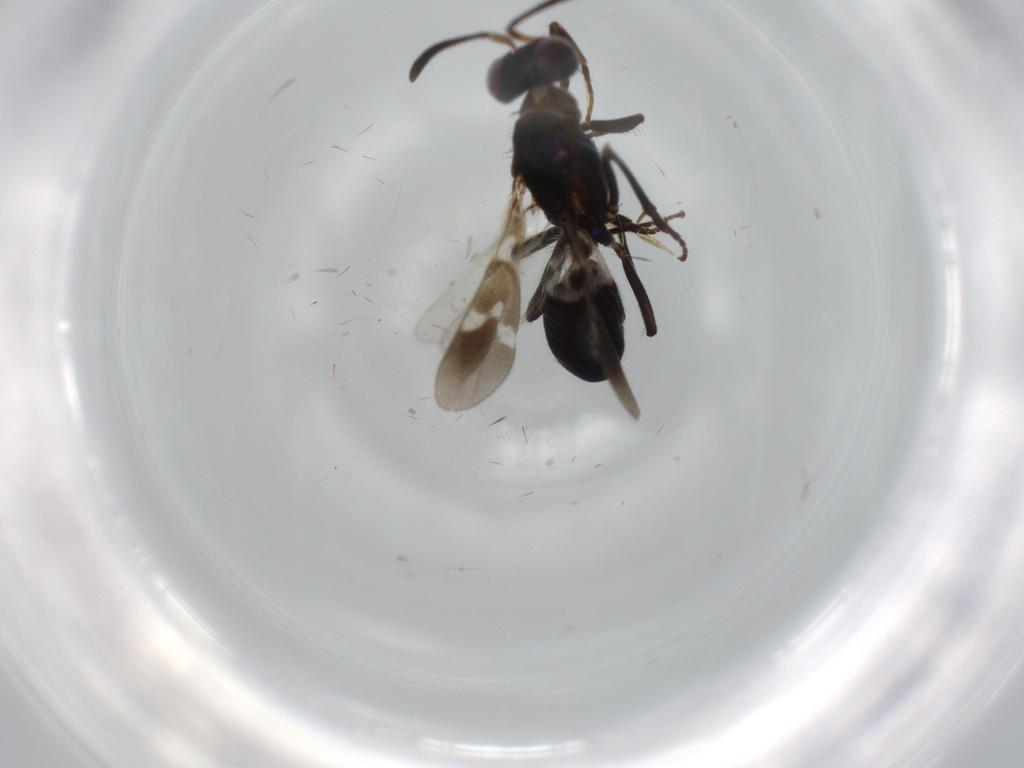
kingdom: Animalia
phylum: Arthropoda
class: Insecta
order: Hymenoptera
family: Eupelmidae
